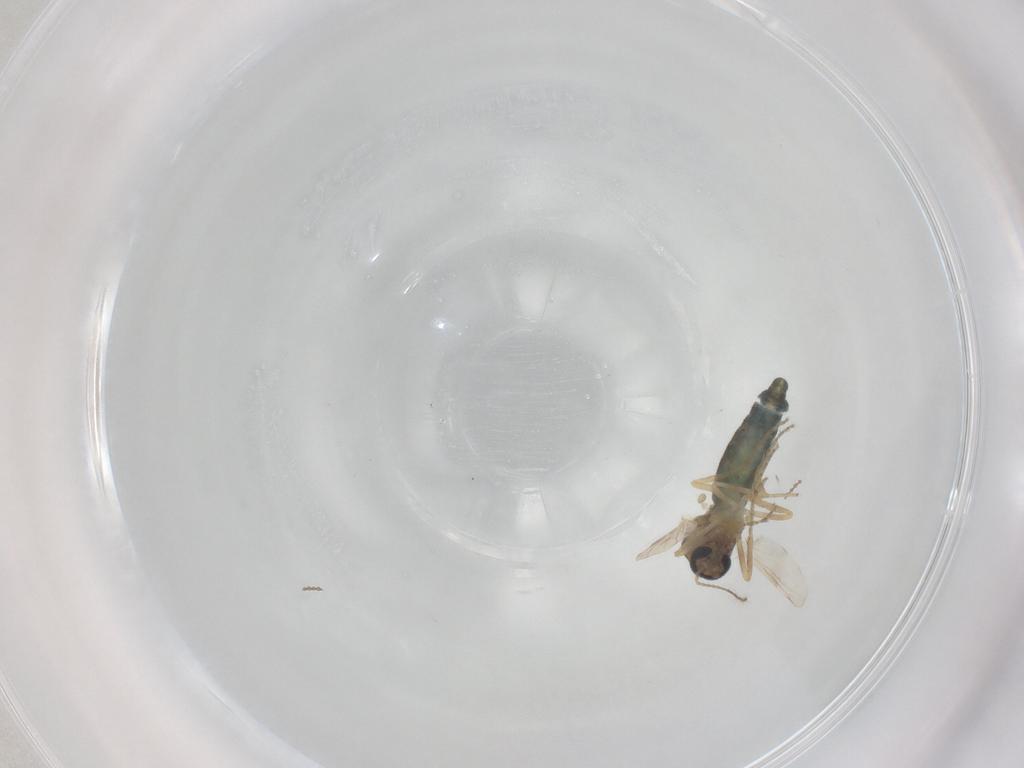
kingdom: Animalia
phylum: Arthropoda
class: Insecta
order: Diptera
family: Ceratopogonidae
